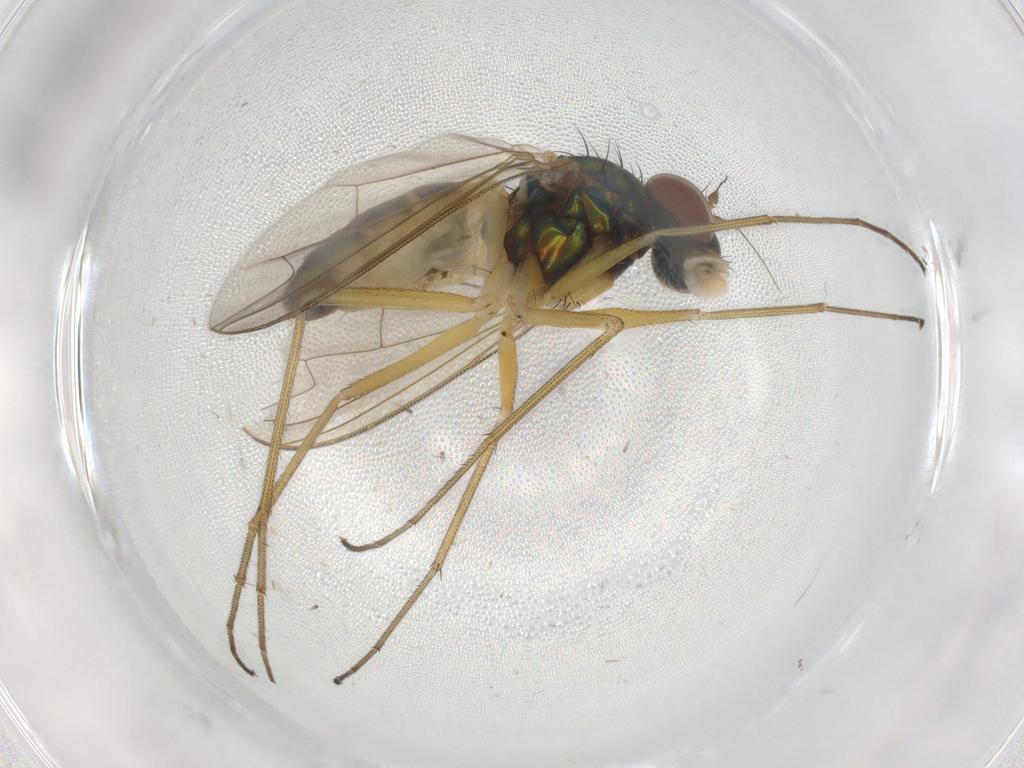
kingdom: Animalia
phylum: Arthropoda
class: Insecta
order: Diptera
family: Dolichopodidae
